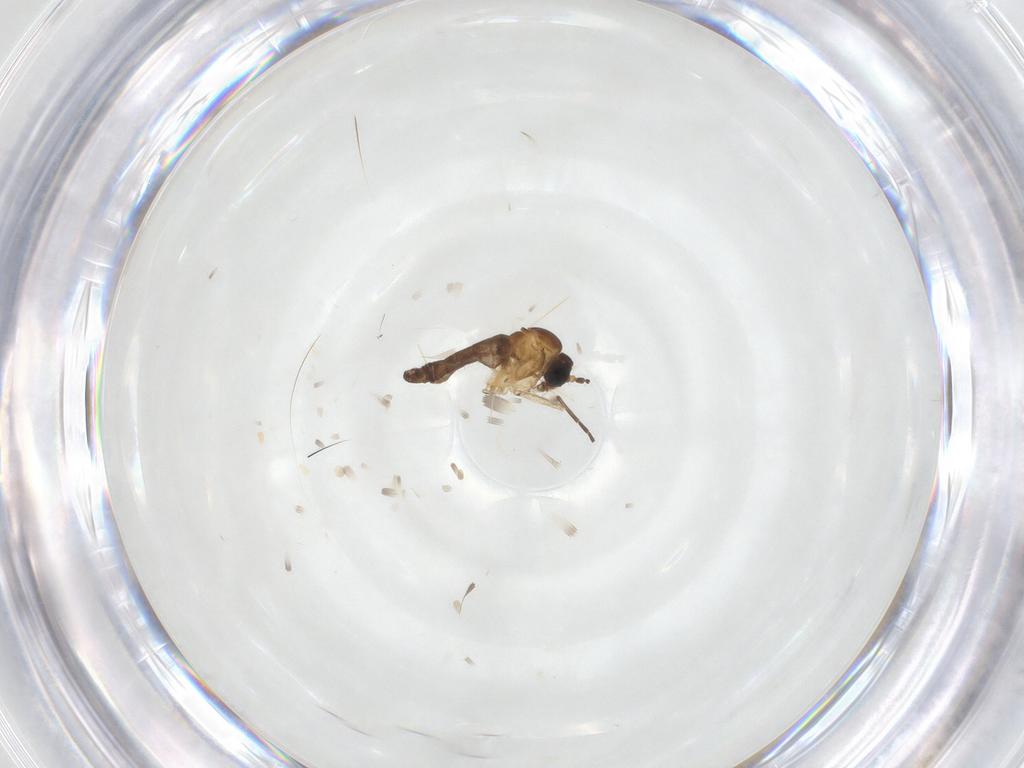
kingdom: Animalia
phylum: Arthropoda
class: Insecta
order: Diptera
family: Sciaridae
